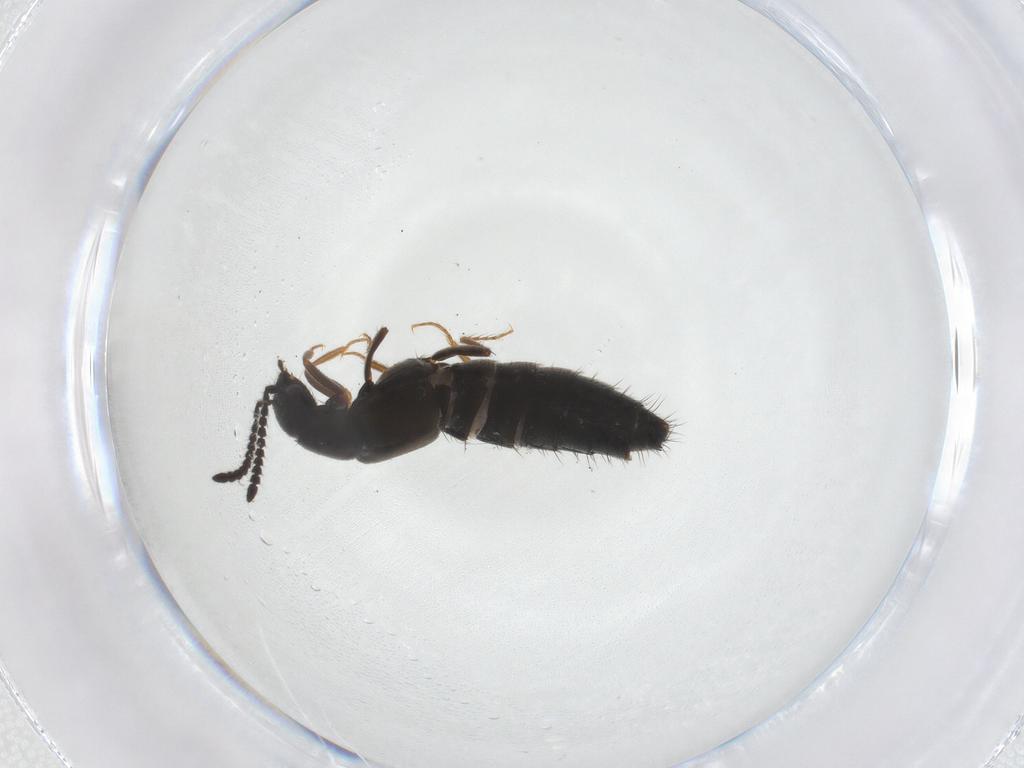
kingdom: Animalia
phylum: Arthropoda
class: Insecta
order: Coleoptera
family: Staphylinidae
